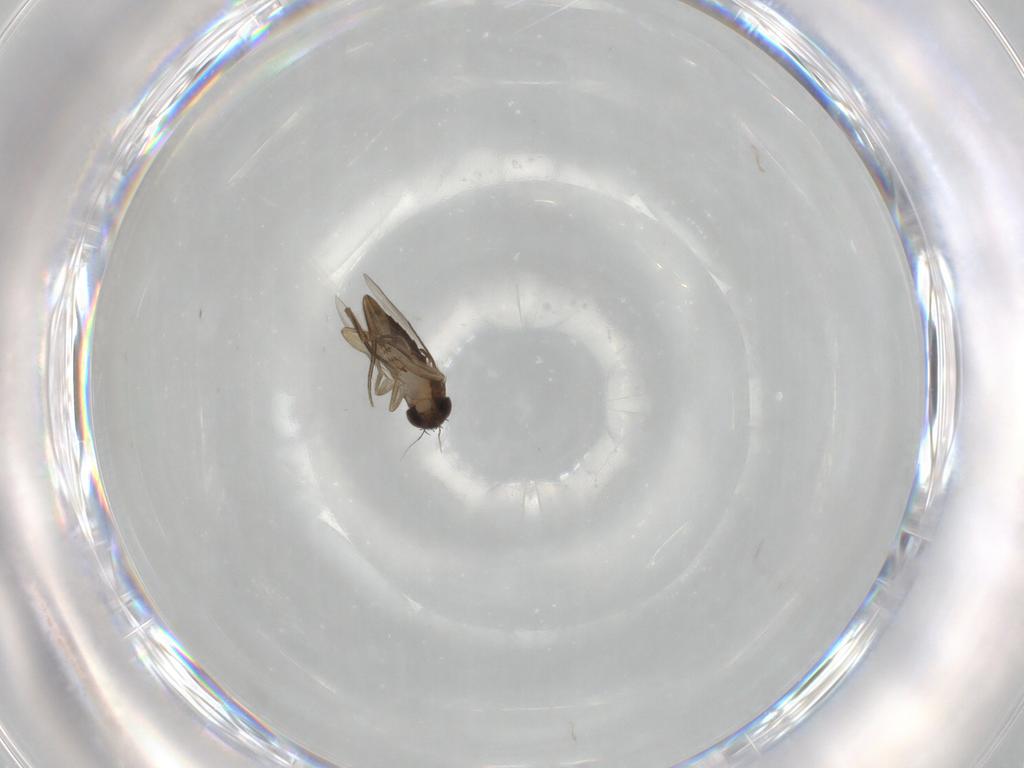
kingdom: Animalia
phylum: Arthropoda
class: Insecta
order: Diptera
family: Phoridae
